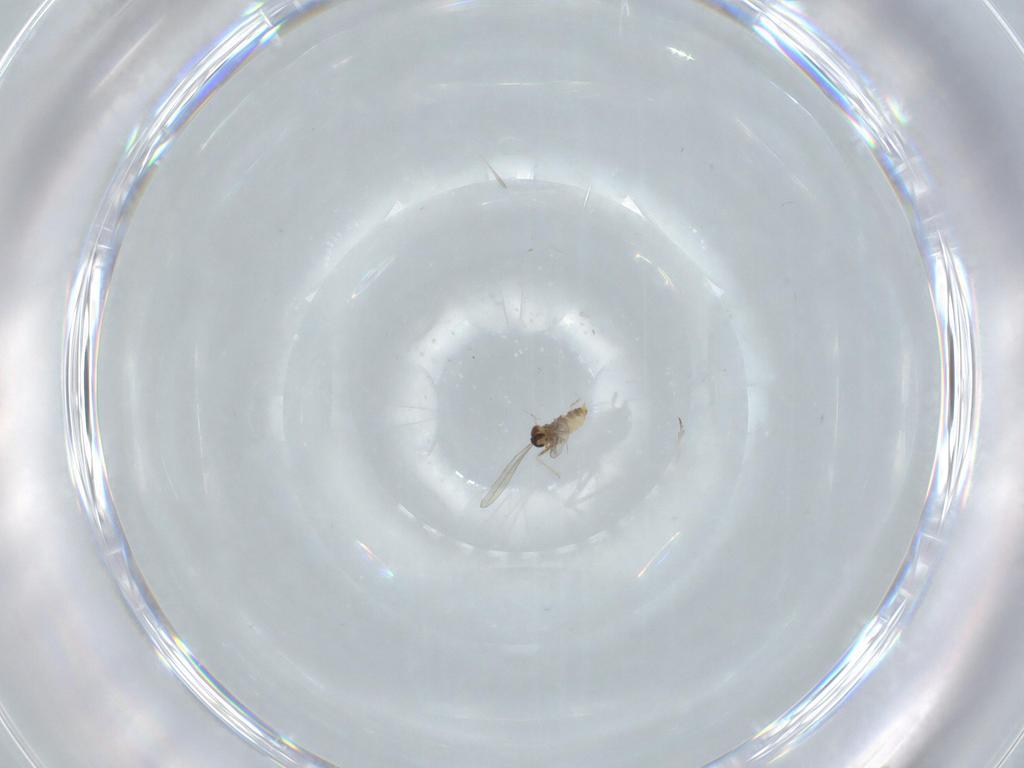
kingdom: Animalia
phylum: Arthropoda
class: Insecta
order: Diptera
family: Cecidomyiidae
